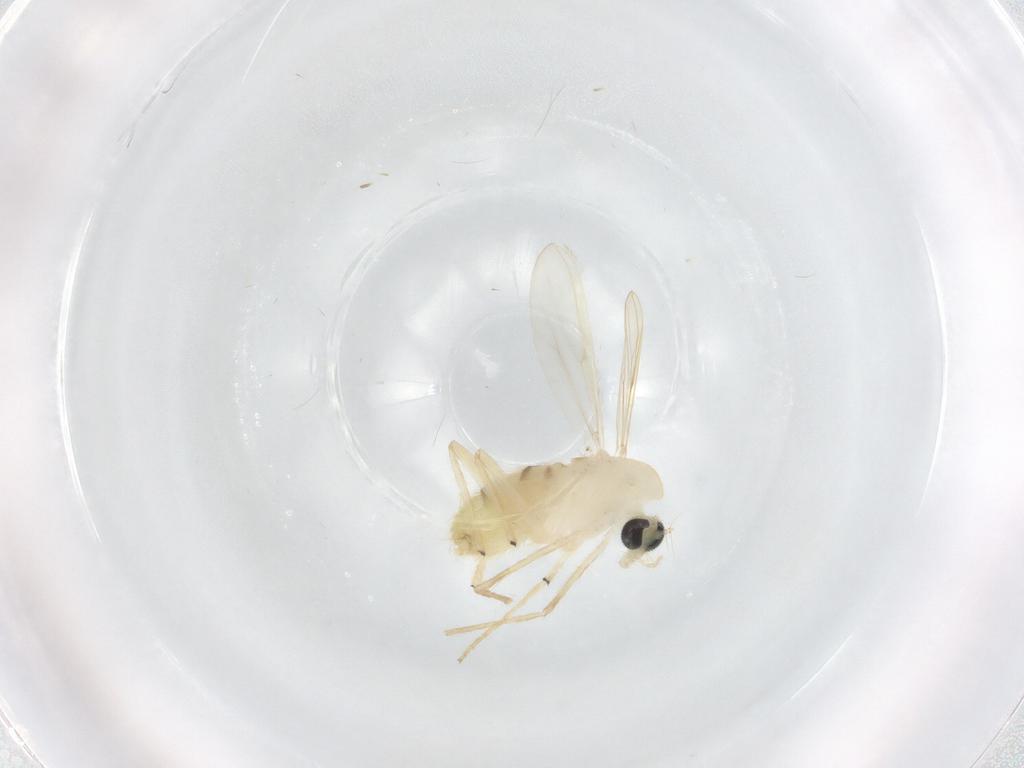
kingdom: Animalia
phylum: Arthropoda
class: Insecta
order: Diptera
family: Chironomidae
